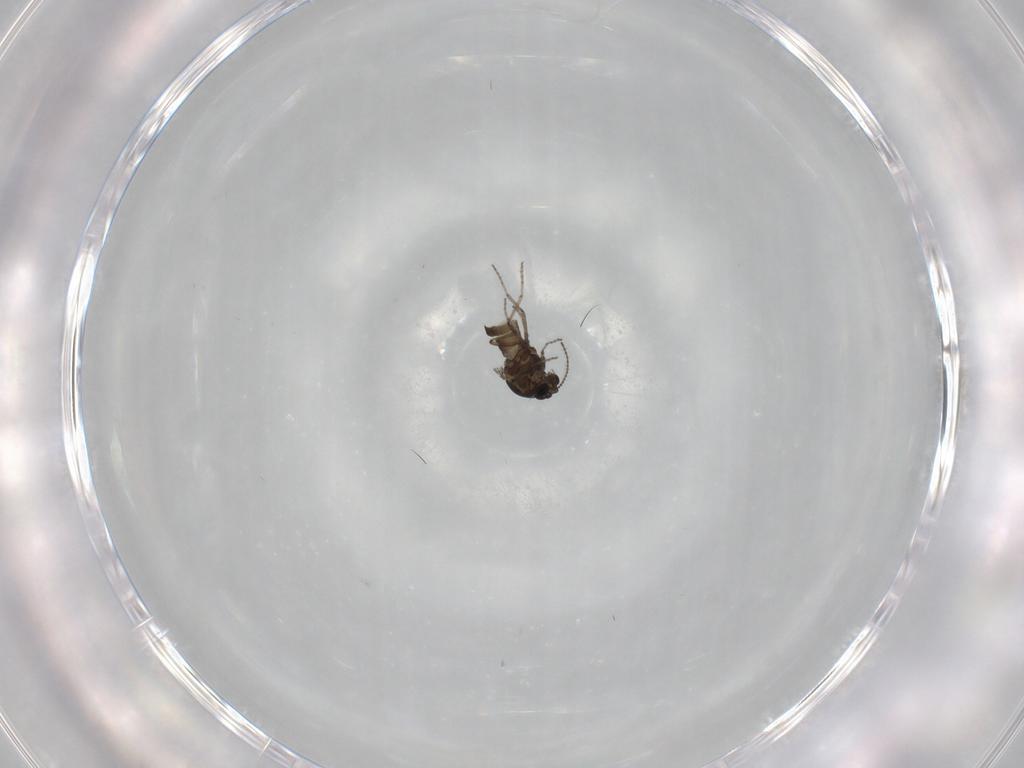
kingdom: Animalia
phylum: Arthropoda
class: Insecta
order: Diptera
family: Ceratopogonidae
